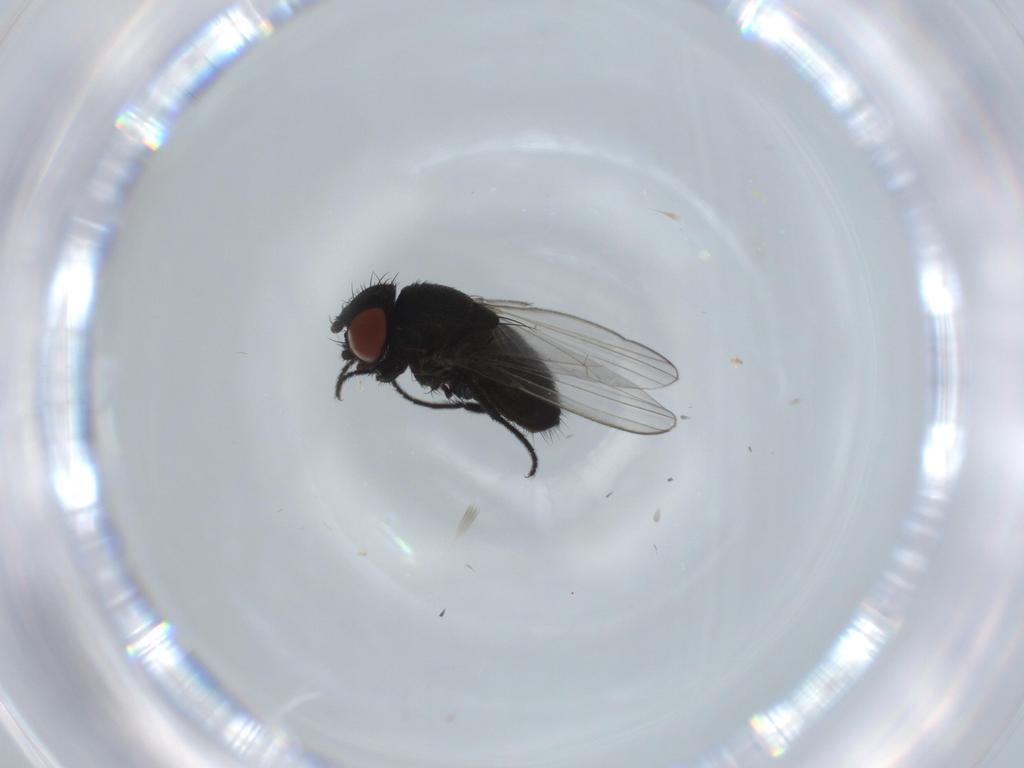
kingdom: Animalia
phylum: Arthropoda
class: Insecta
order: Diptera
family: Milichiidae
